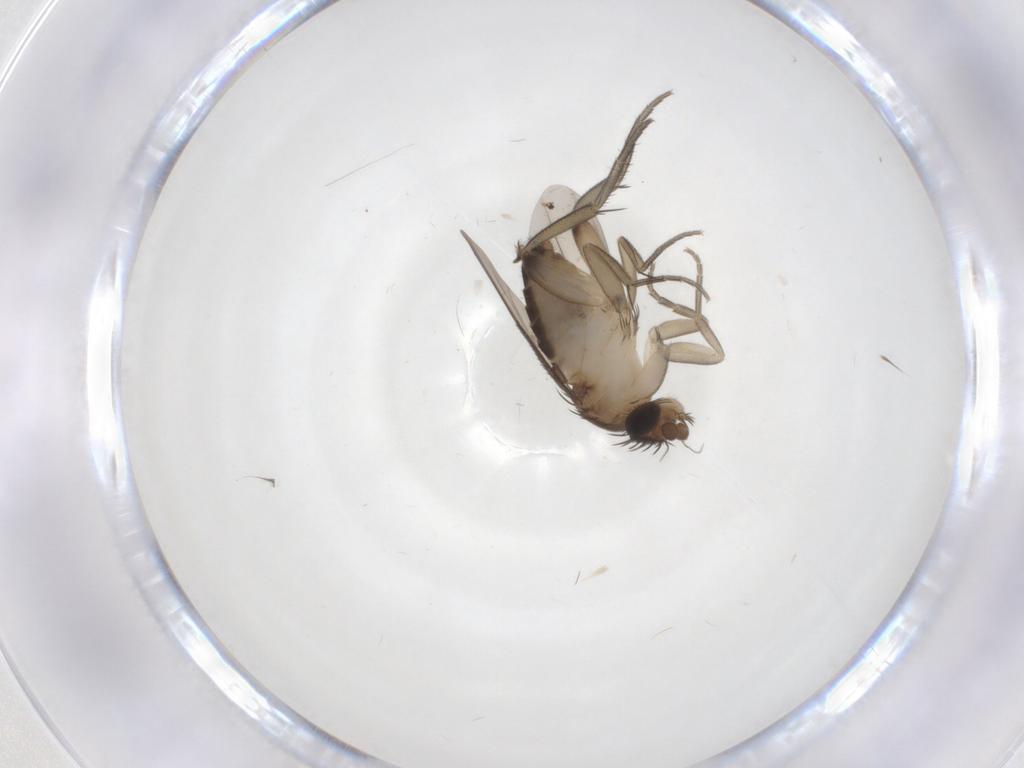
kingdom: Animalia
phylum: Arthropoda
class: Insecta
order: Diptera
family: Phoridae
